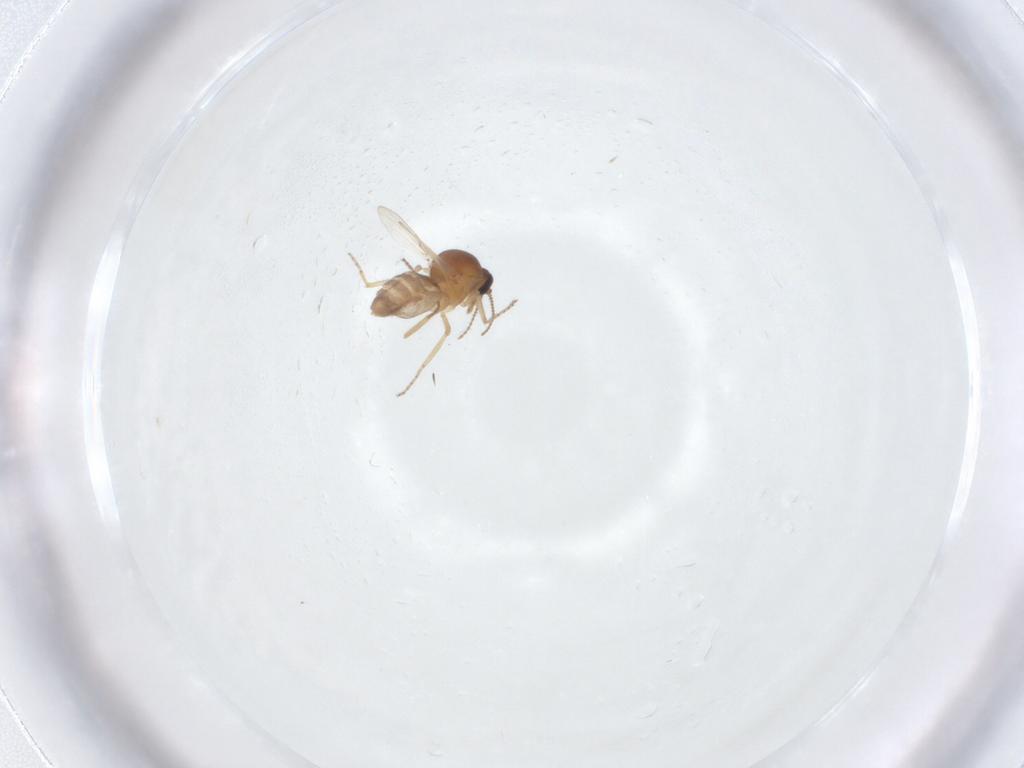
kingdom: Animalia
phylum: Arthropoda
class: Insecta
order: Diptera
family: Ceratopogonidae
